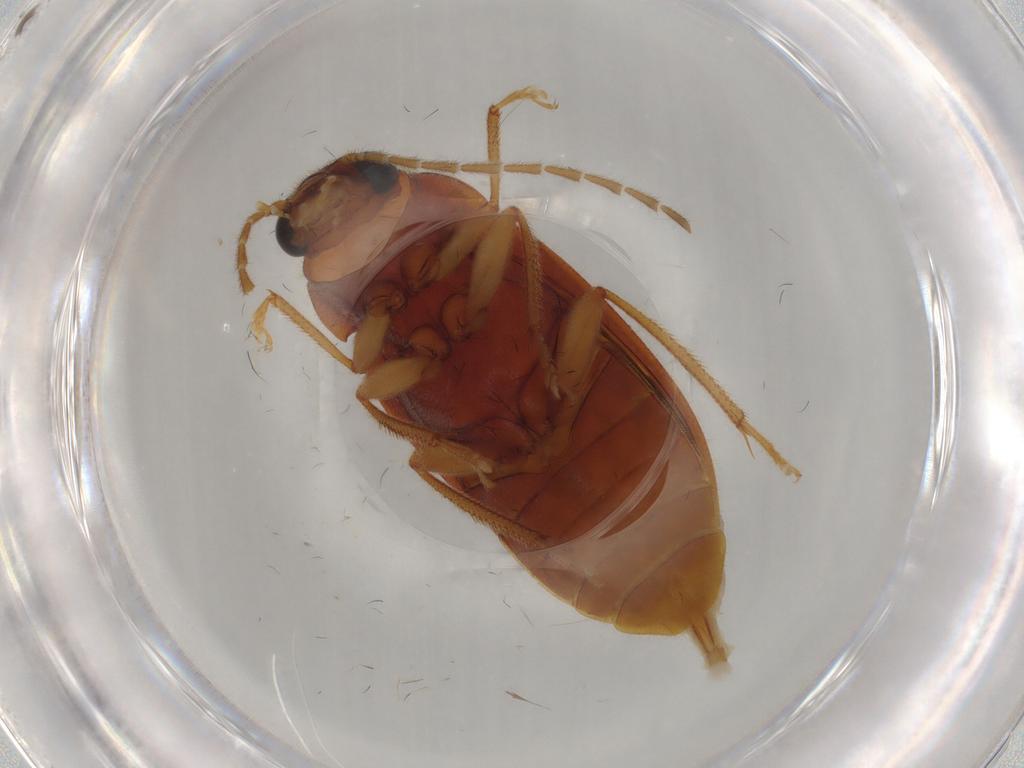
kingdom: Animalia
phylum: Arthropoda
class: Insecta
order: Coleoptera
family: Ptilodactylidae
